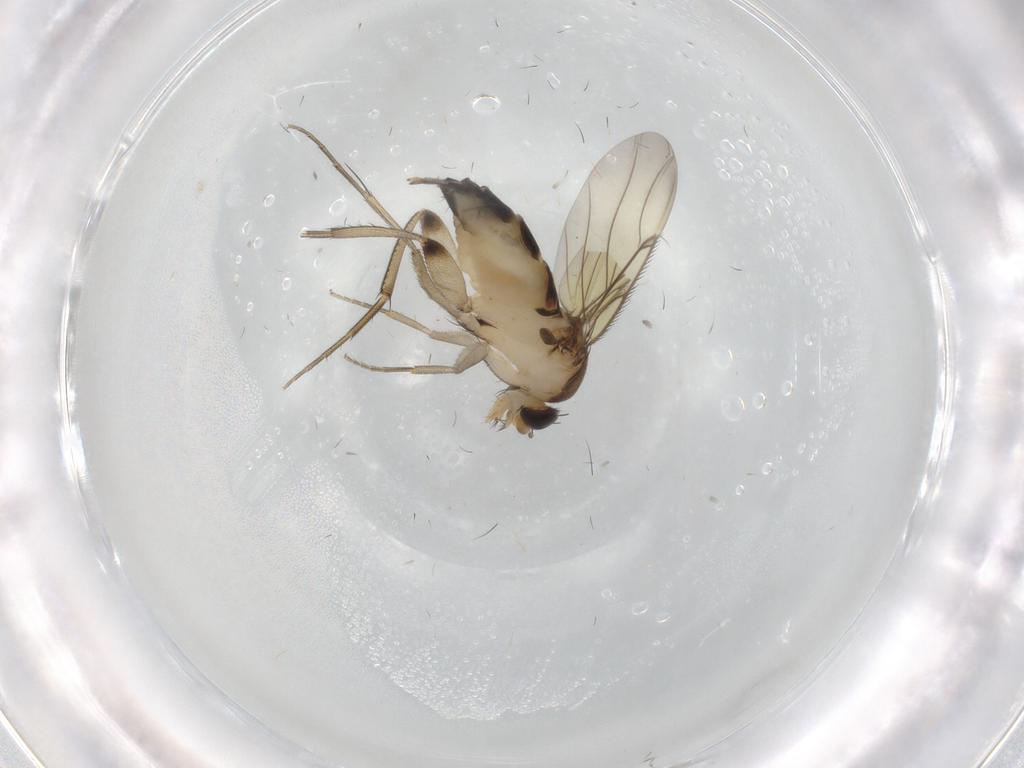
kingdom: Animalia
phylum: Arthropoda
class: Insecta
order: Diptera
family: Phoridae
